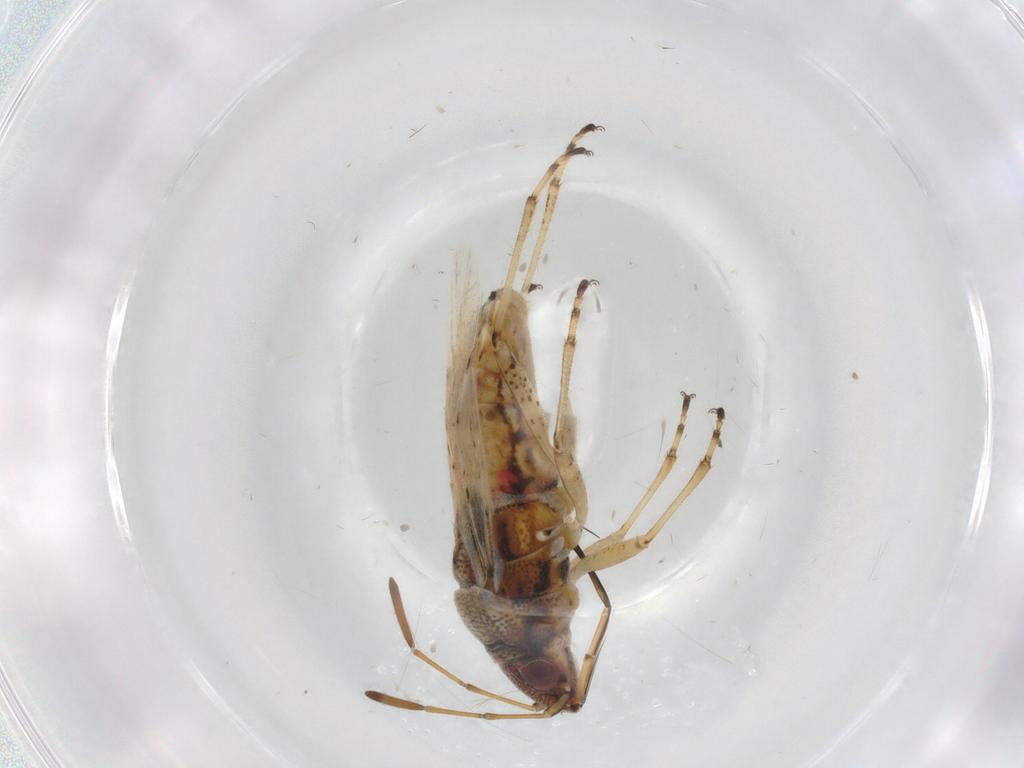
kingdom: Animalia
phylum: Arthropoda
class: Insecta
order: Hemiptera
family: Lygaeidae
